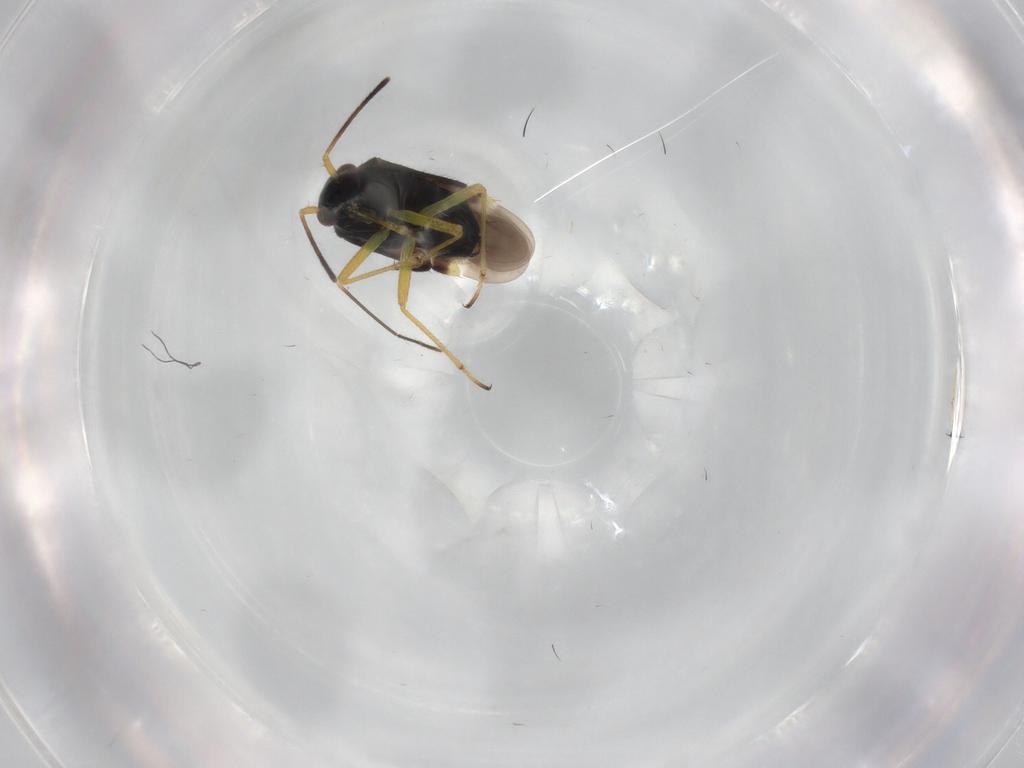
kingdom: Animalia
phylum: Arthropoda
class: Insecta
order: Hemiptera
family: Miridae
